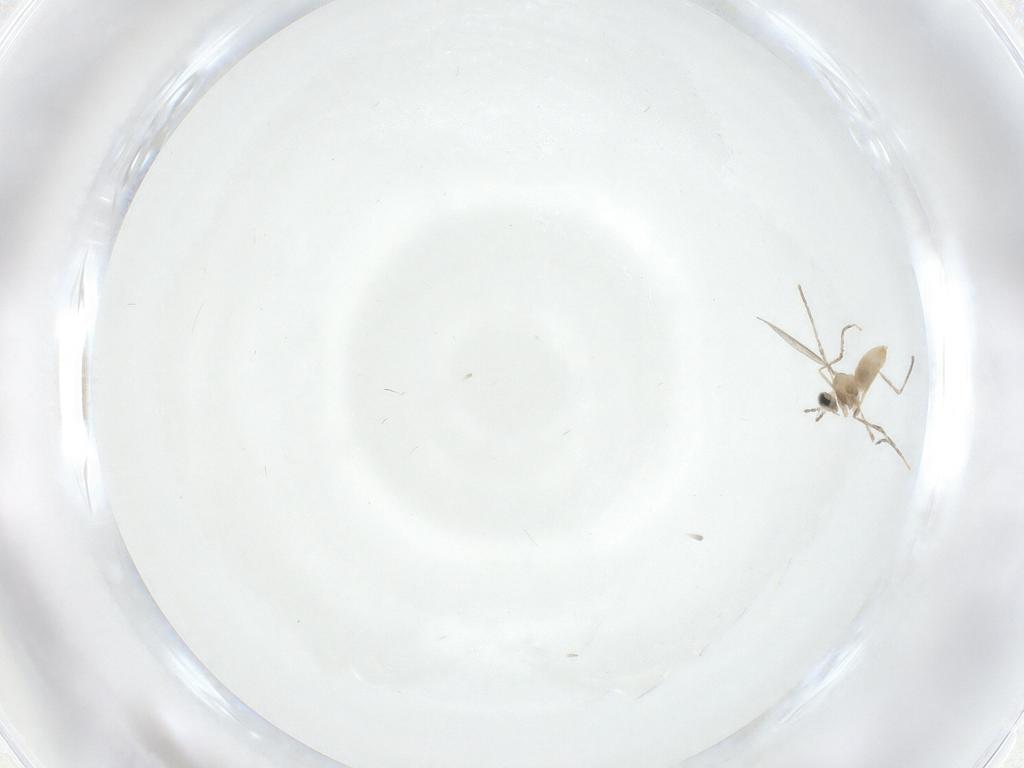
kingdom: Animalia
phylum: Arthropoda
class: Insecta
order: Diptera
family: Cecidomyiidae
